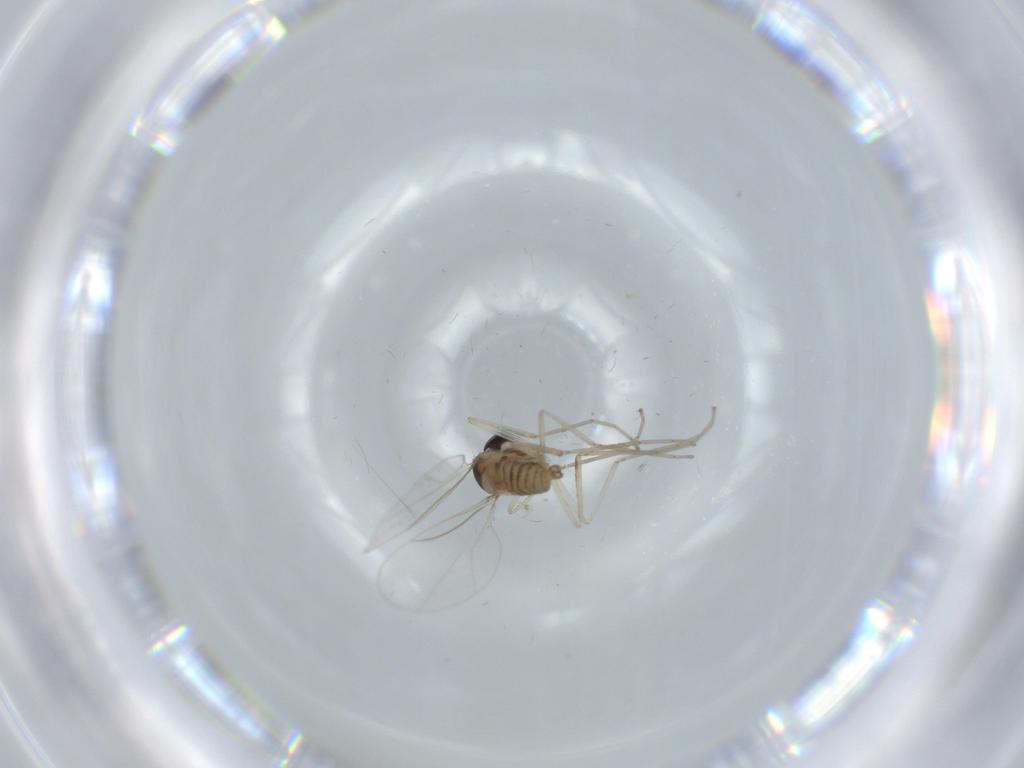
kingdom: Animalia
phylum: Arthropoda
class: Insecta
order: Diptera
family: Cecidomyiidae
